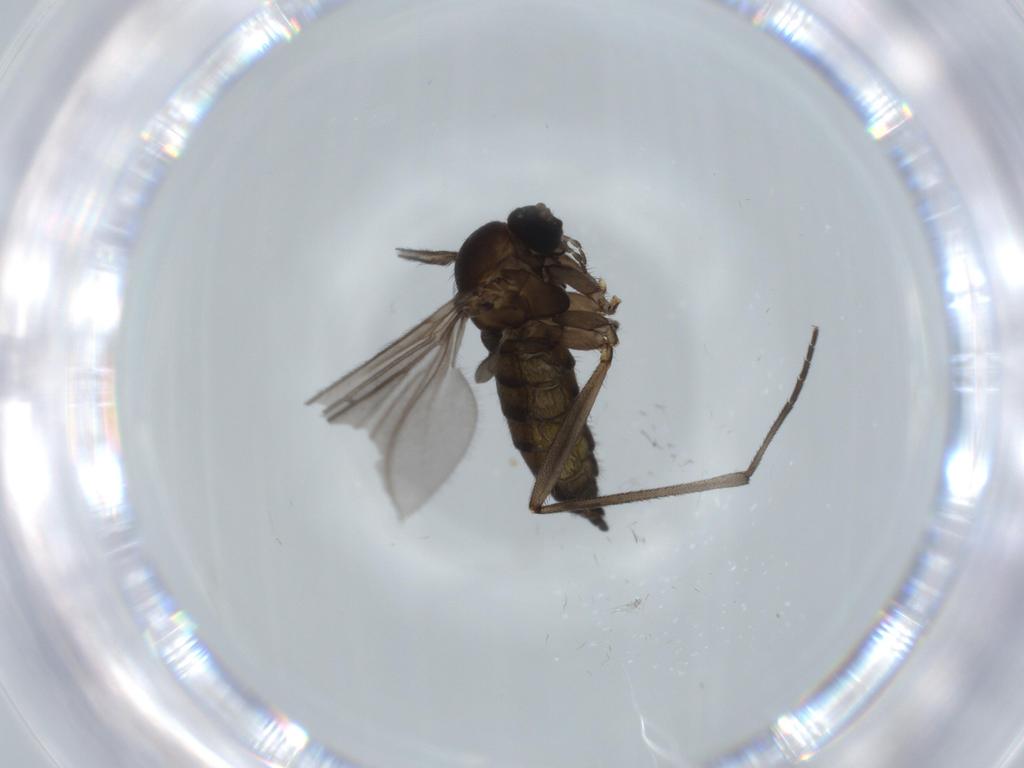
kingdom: Animalia
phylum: Arthropoda
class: Insecta
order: Diptera
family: Sciaridae
